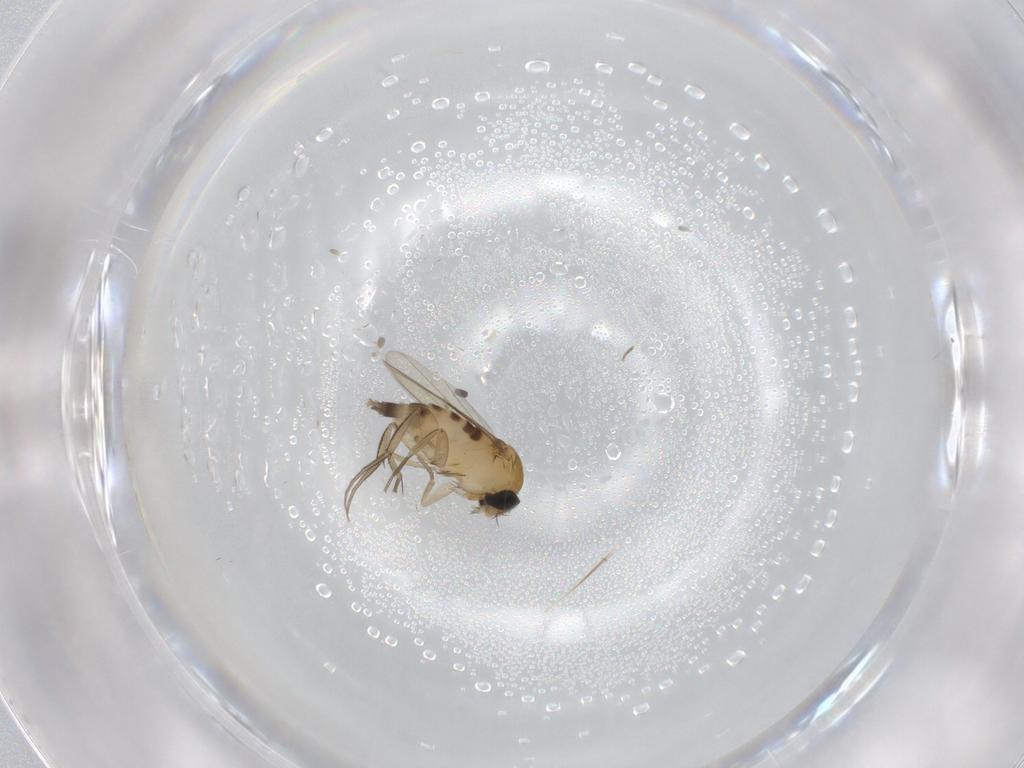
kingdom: Animalia
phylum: Arthropoda
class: Insecta
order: Diptera
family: Phoridae
